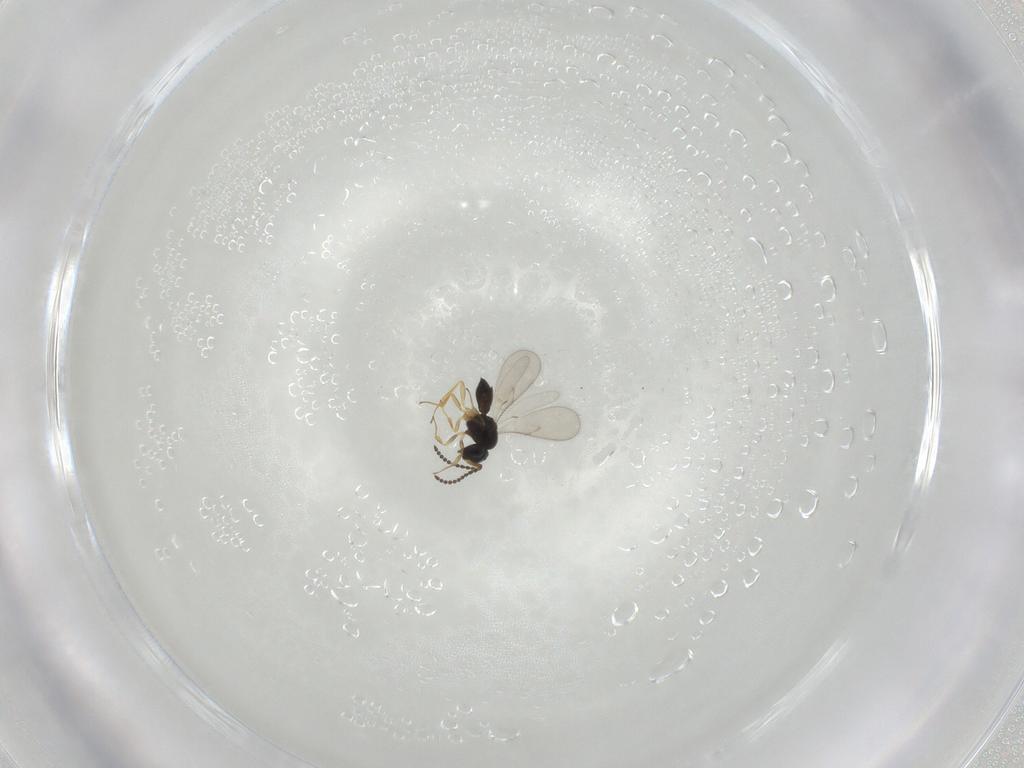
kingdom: Animalia
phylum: Arthropoda
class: Insecta
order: Hymenoptera
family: Scelionidae
